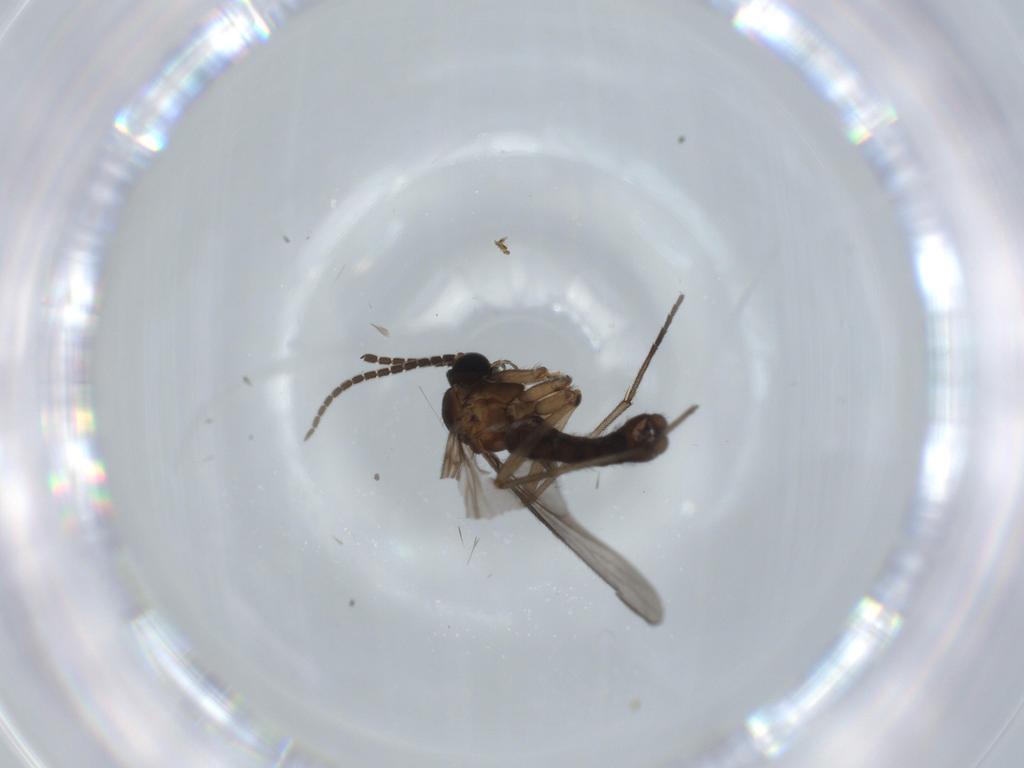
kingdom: Animalia
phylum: Arthropoda
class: Insecta
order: Diptera
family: Sciaridae
